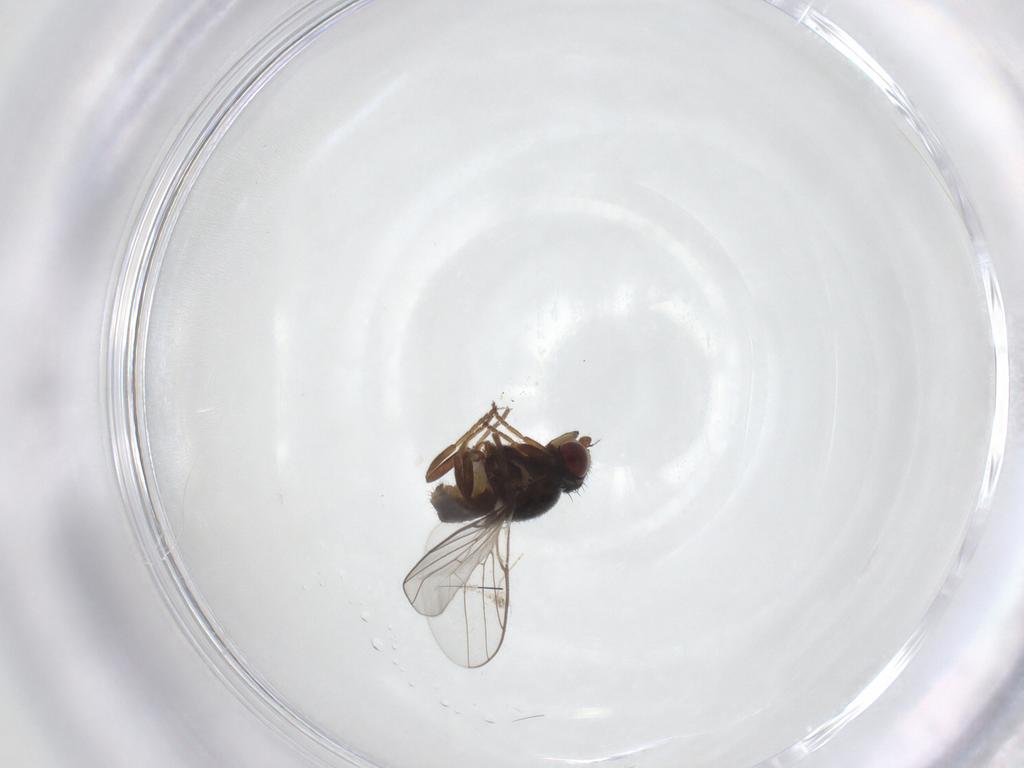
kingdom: Animalia
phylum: Arthropoda
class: Insecta
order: Diptera
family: Chloropidae
